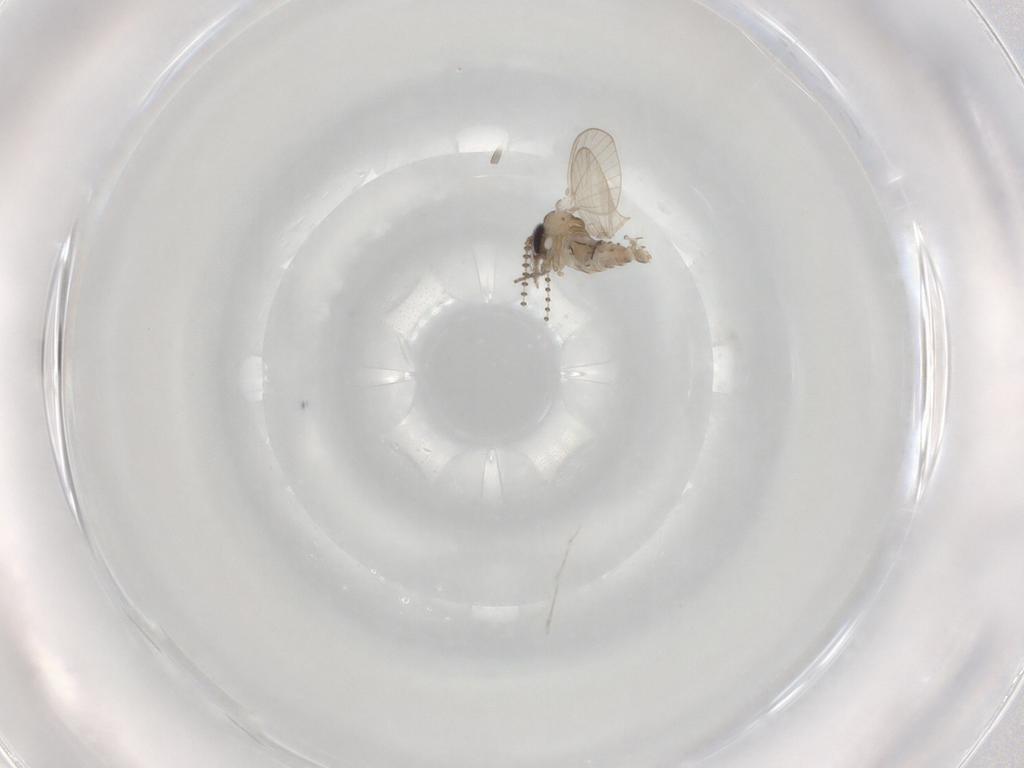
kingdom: Animalia
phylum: Arthropoda
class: Insecta
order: Diptera
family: Psychodidae
